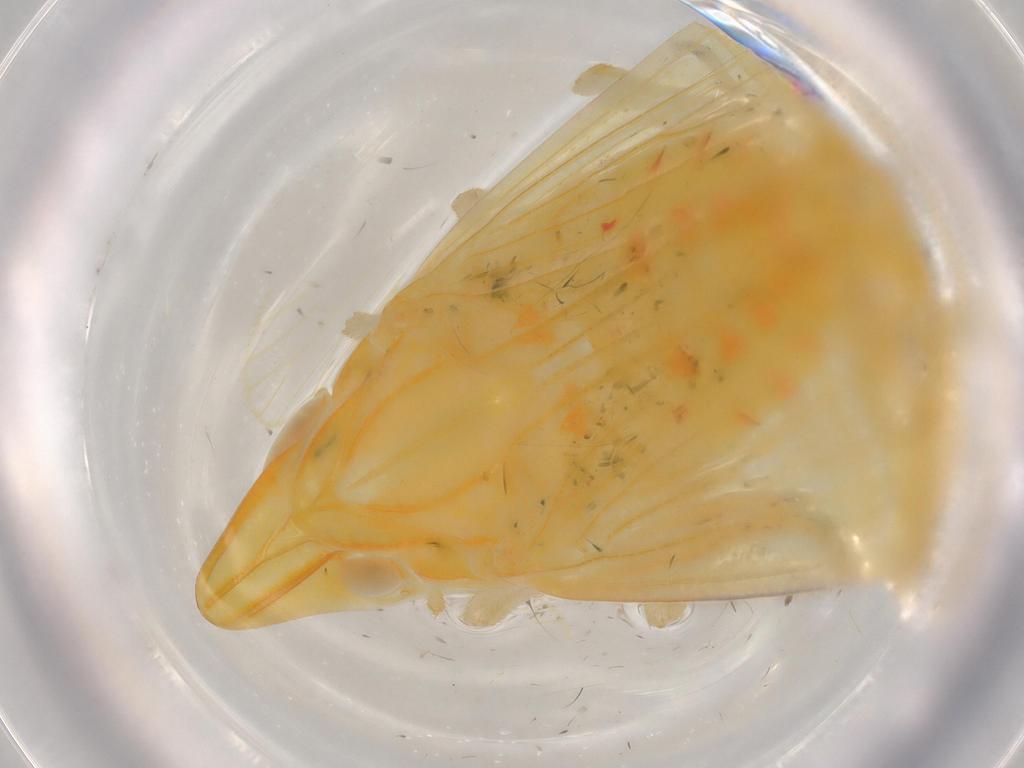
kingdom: Animalia
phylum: Arthropoda
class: Insecta
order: Hemiptera
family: Tropiduchidae
